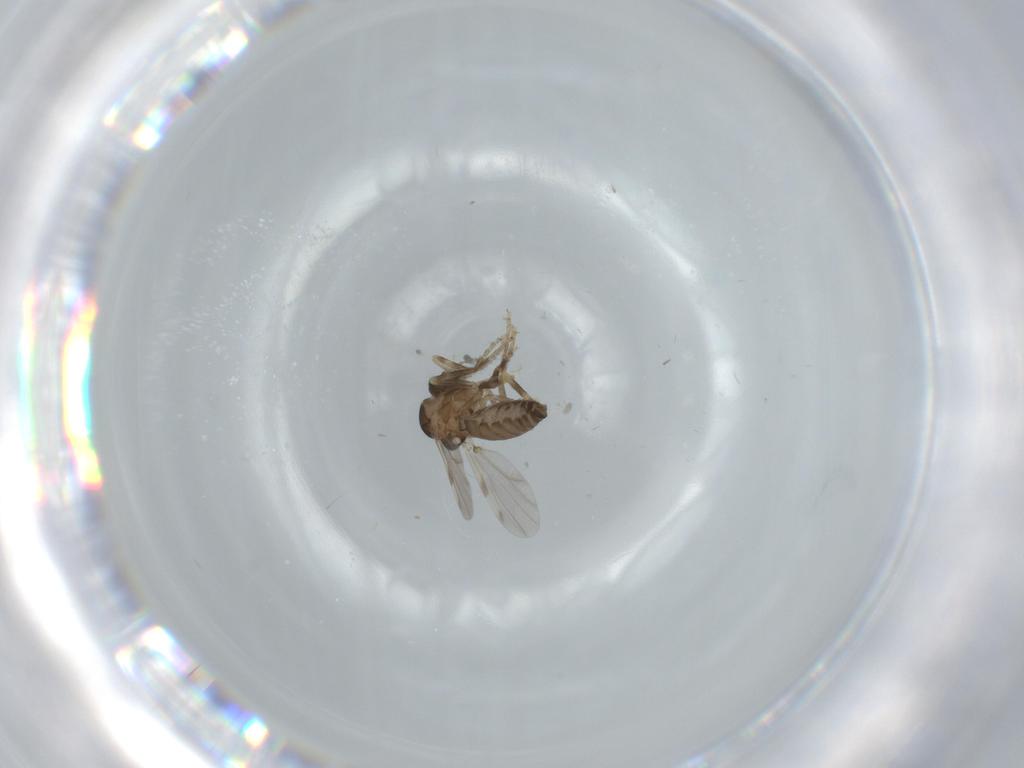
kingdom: Animalia
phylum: Arthropoda
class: Insecta
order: Diptera
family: Ceratopogonidae
